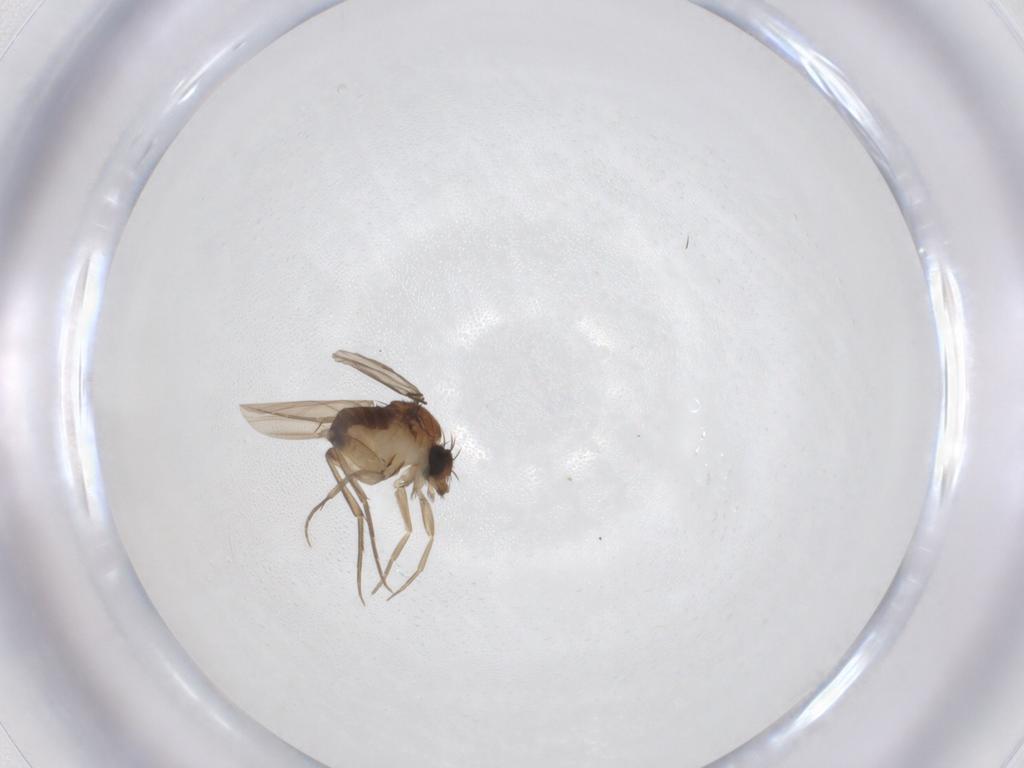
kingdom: Animalia
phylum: Arthropoda
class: Insecta
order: Diptera
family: Phoridae
